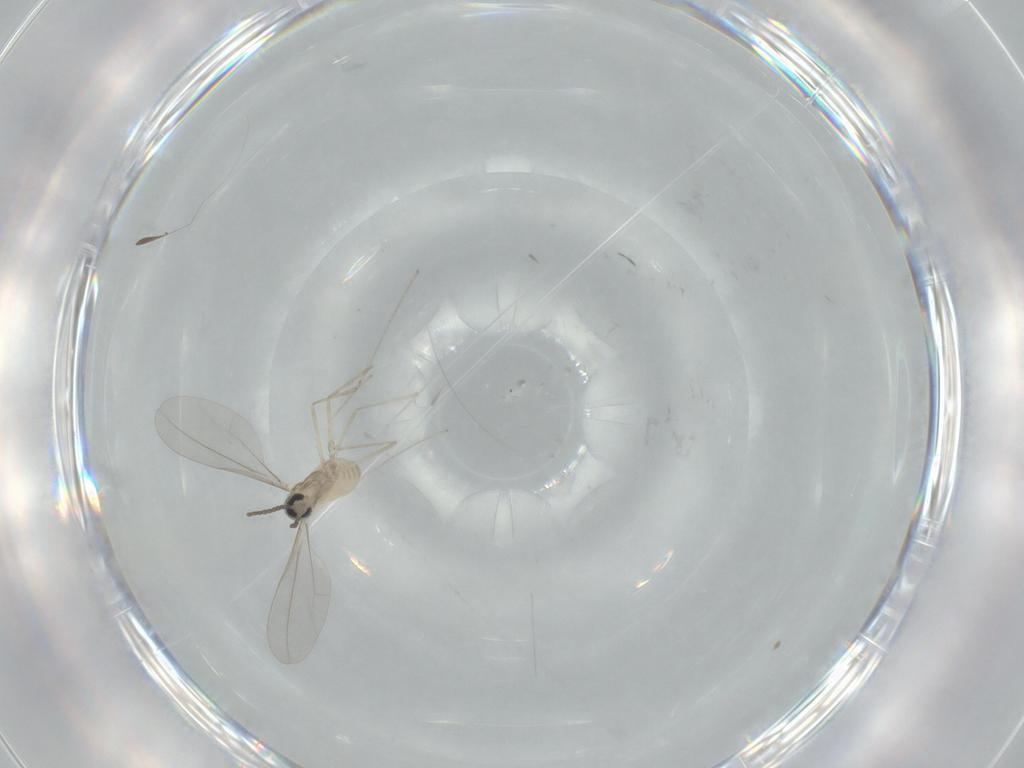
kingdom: Animalia
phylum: Arthropoda
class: Insecta
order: Diptera
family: Cecidomyiidae
